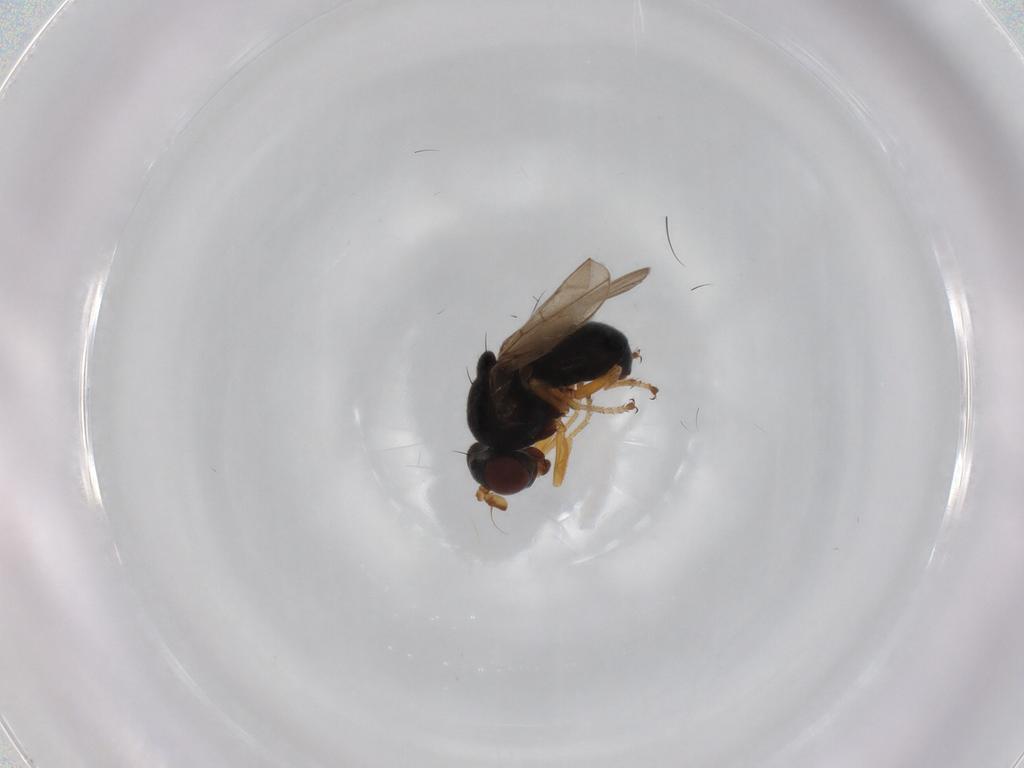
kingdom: Animalia
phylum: Arthropoda
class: Insecta
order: Diptera
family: Ephydridae
